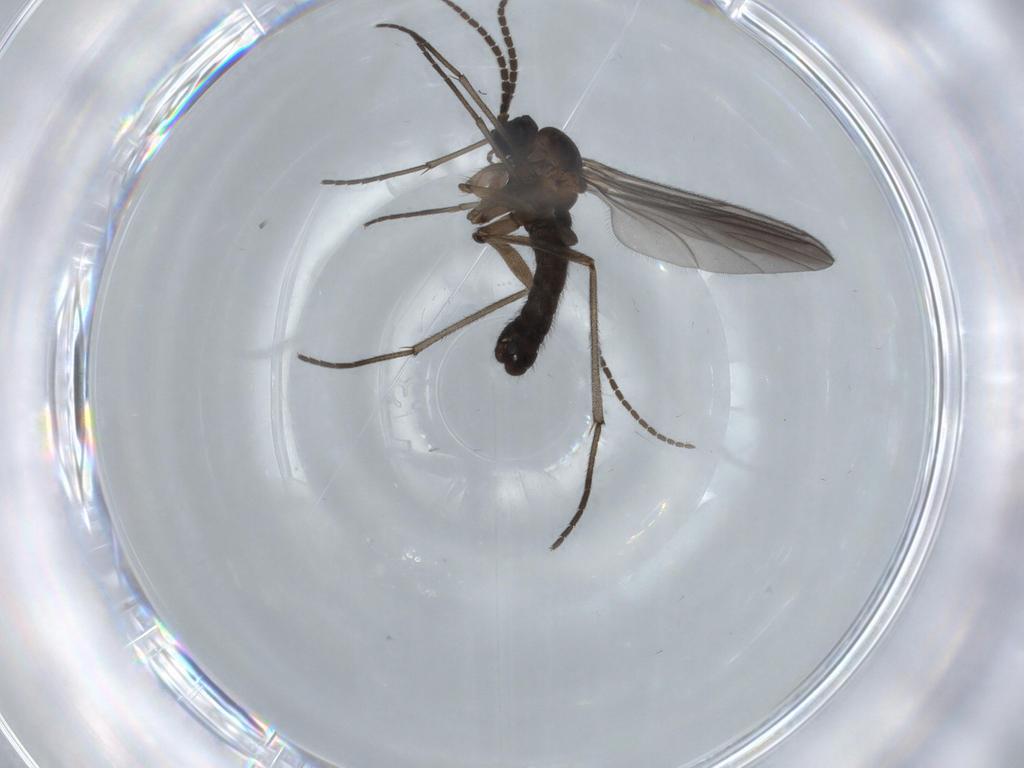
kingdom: Animalia
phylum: Arthropoda
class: Insecta
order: Diptera
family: Sciaridae
